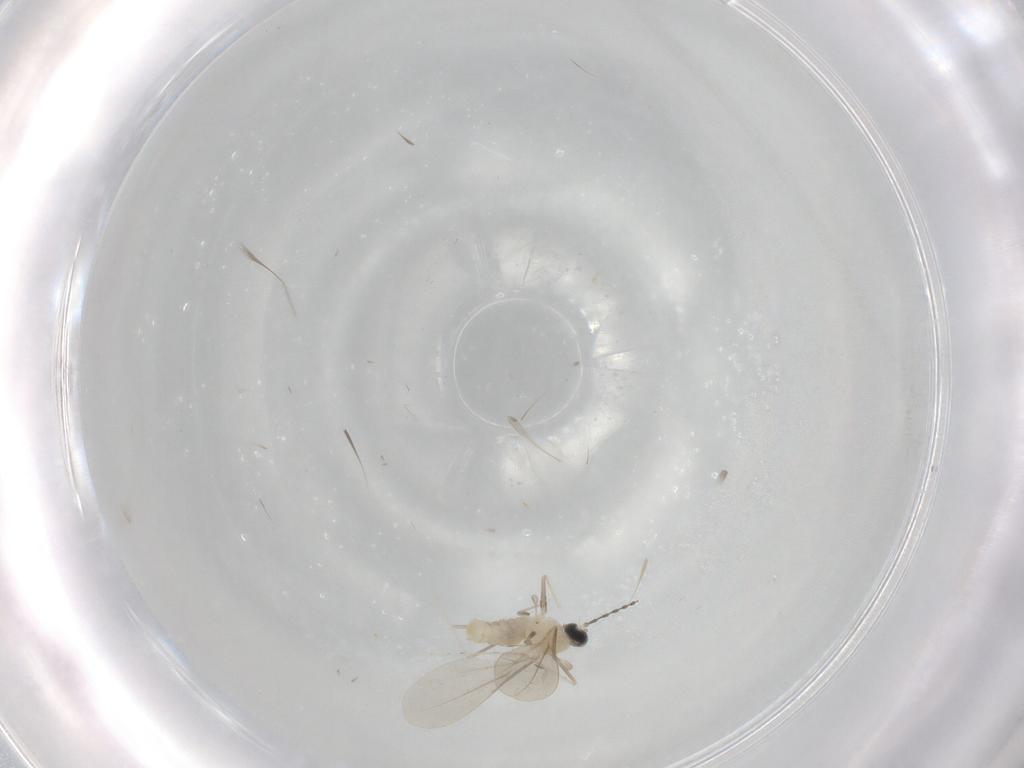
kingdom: Animalia
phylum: Arthropoda
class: Insecta
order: Diptera
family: Cecidomyiidae
